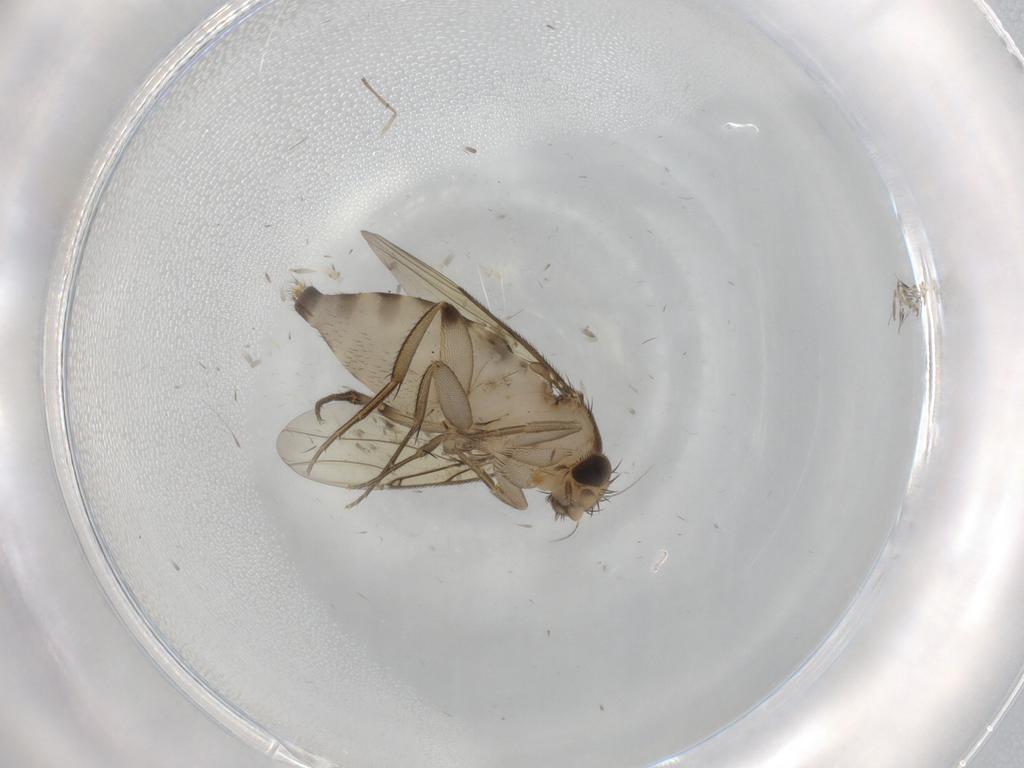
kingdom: Animalia
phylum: Arthropoda
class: Insecta
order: Diptera
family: Phoridae
